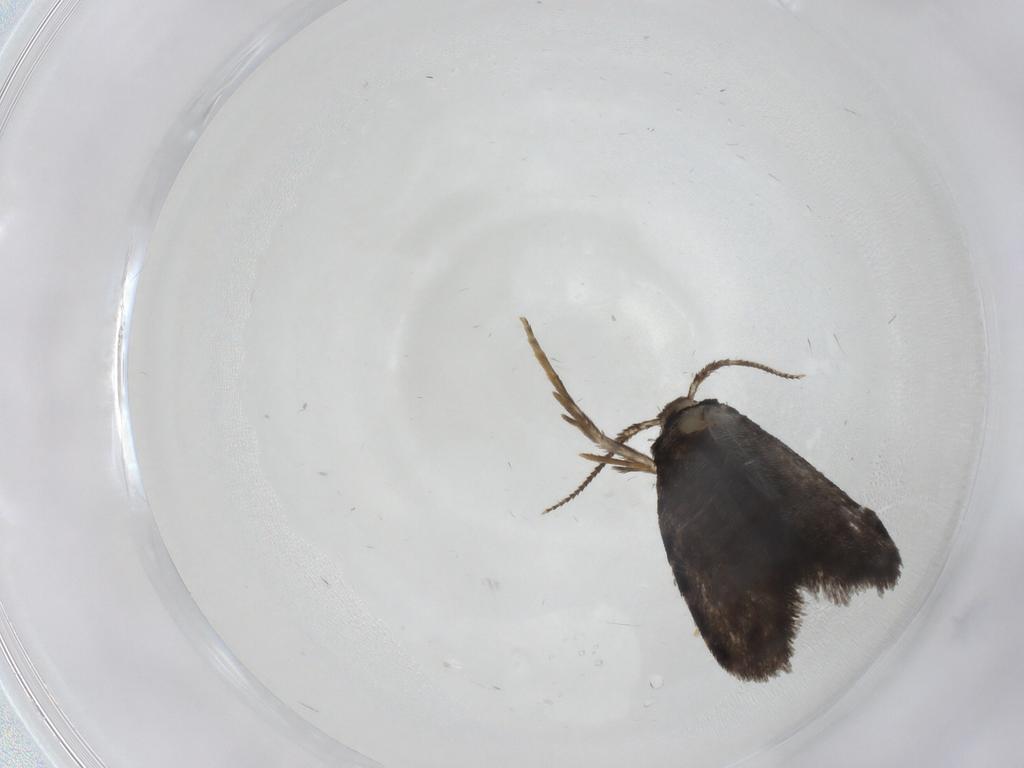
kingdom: Animalia
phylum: Arthropoda
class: Insecta
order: Lepidoptera
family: Psychidae
